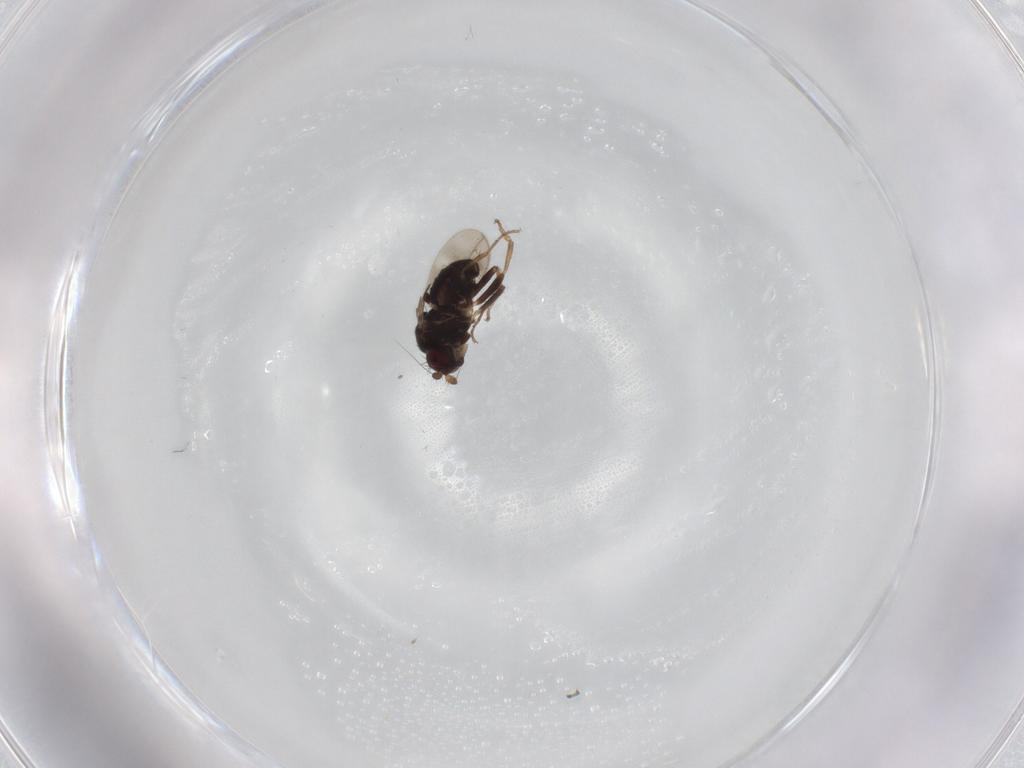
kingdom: Animalia
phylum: Arthropoda
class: Insecta
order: Diptera
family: Sphaeroceridae
